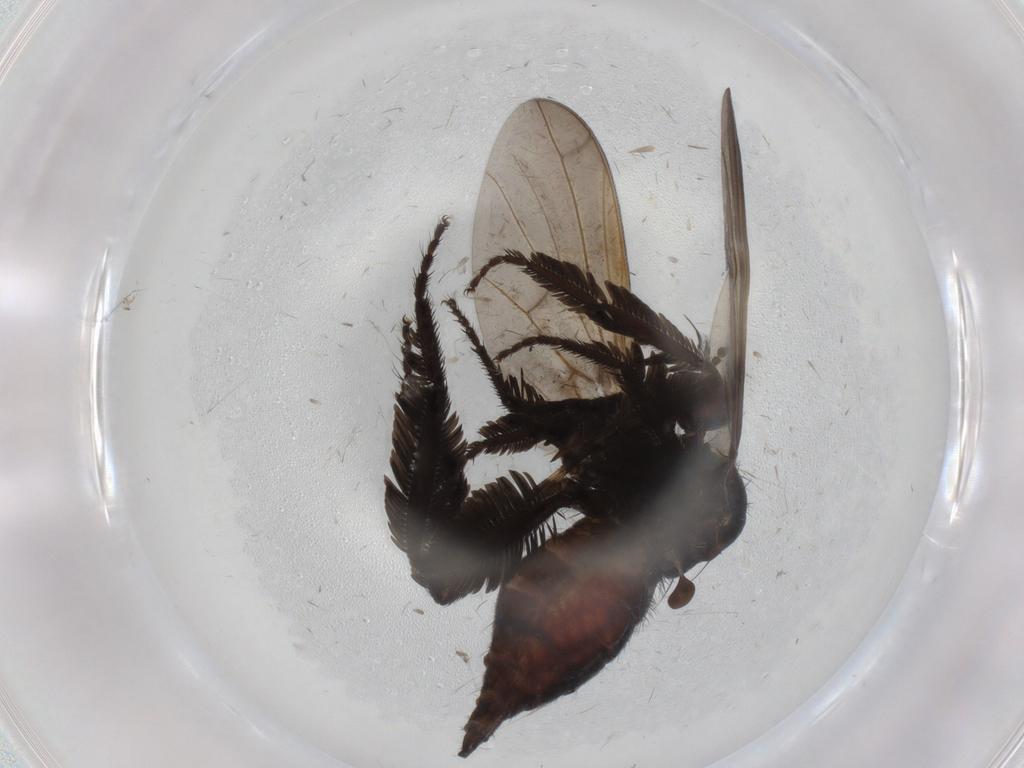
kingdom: Animalia
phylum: Arthropoda
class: Insecta
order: Diptera
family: Empididae
